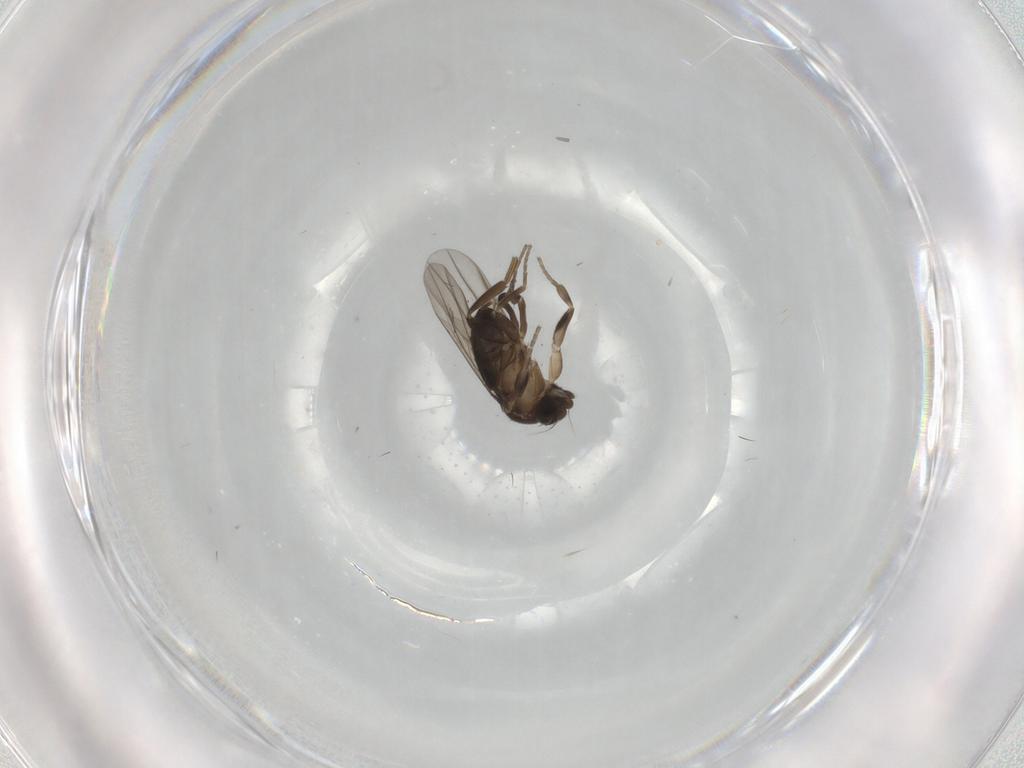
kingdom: Animalia
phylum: Arthropoda
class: Insecta
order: Diptera
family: Phoridae
